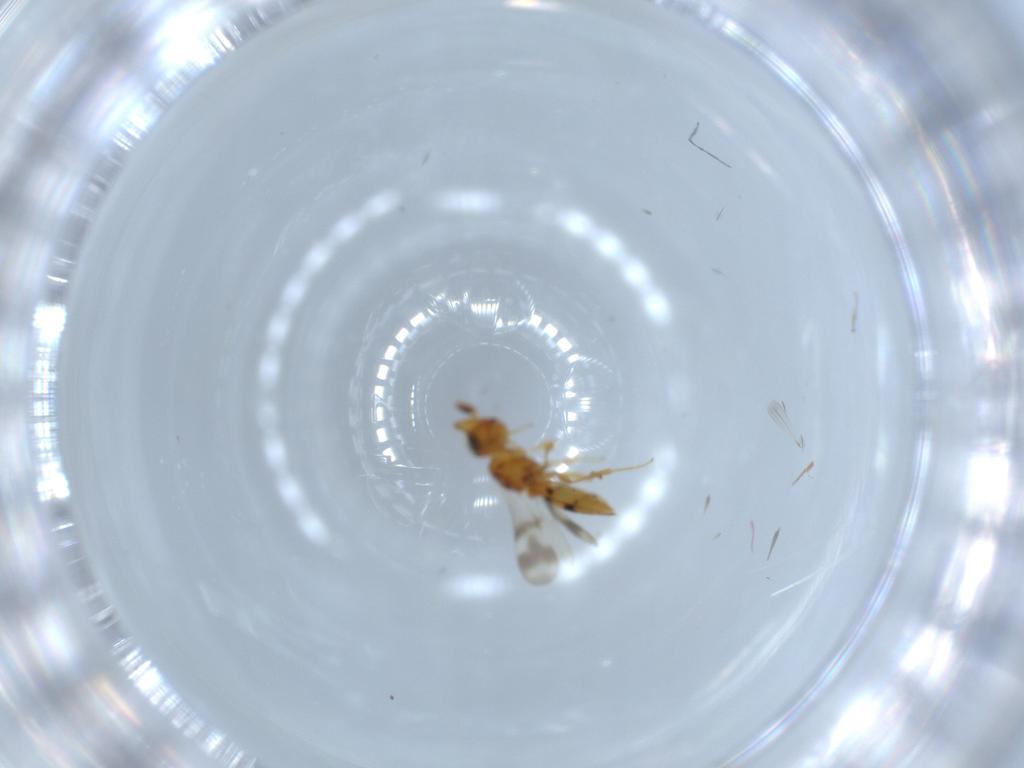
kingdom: Animalia
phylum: Arthropoda
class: Insecta
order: Hymenoptera
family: Scelionidae
